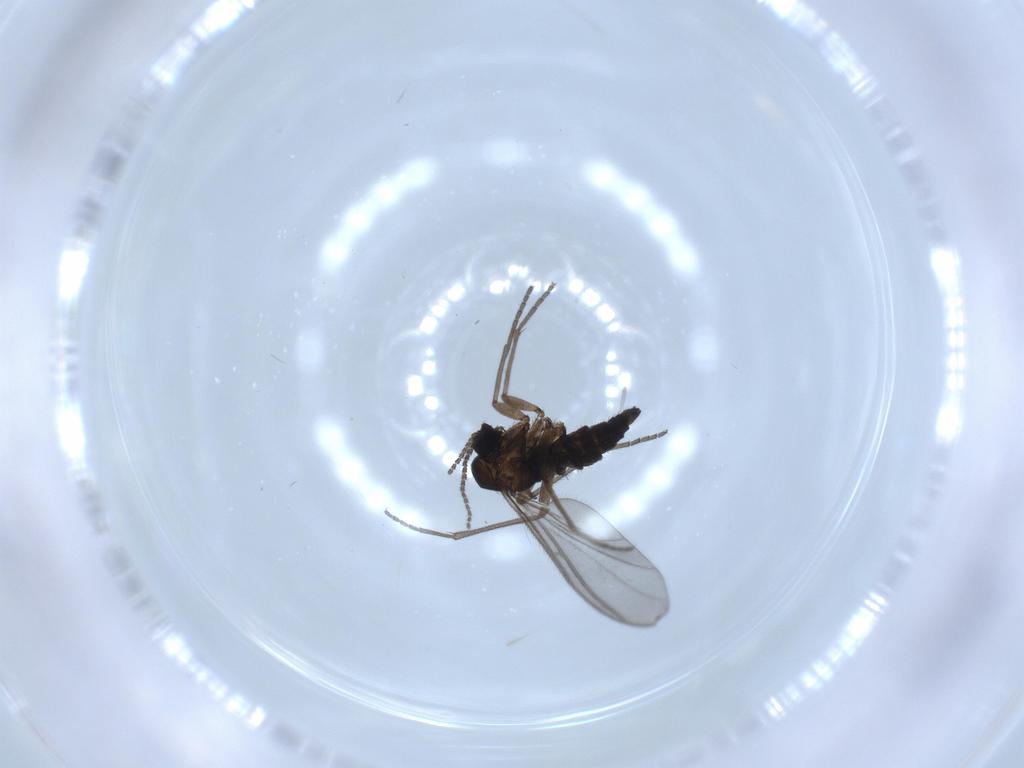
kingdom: Animalia
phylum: Arthropoda
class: Insecta
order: Diptera
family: Sciaridae
